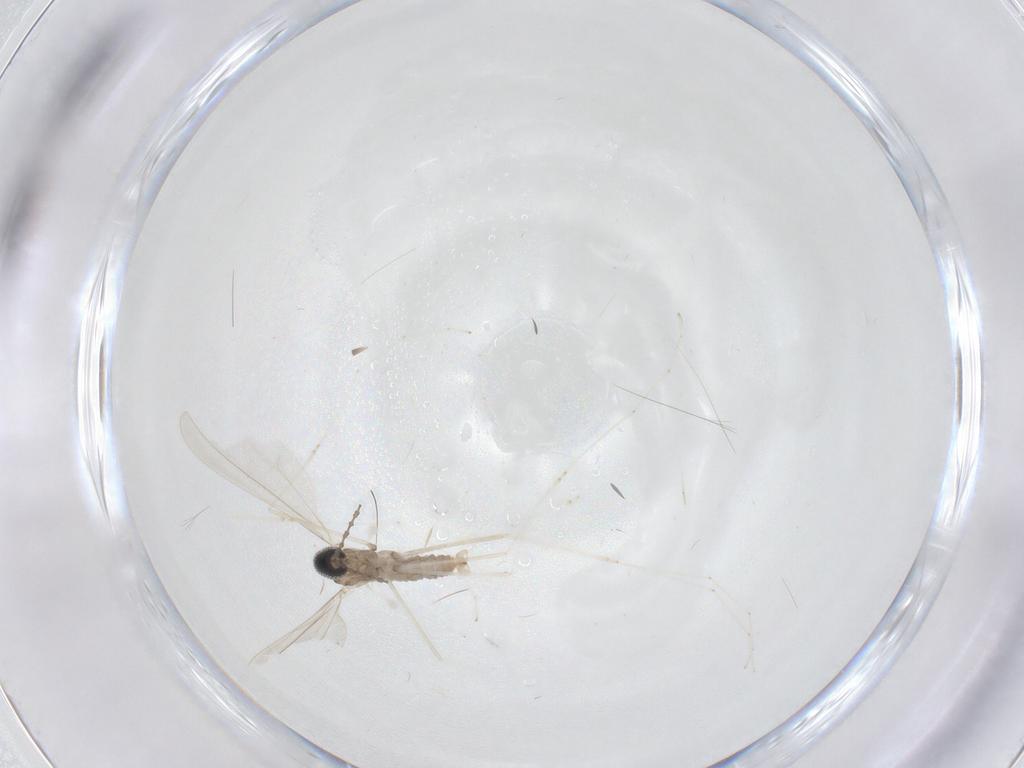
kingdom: Animalia
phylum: Arthropoda
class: Insecta
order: Diptera
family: Cecidomyiidae
